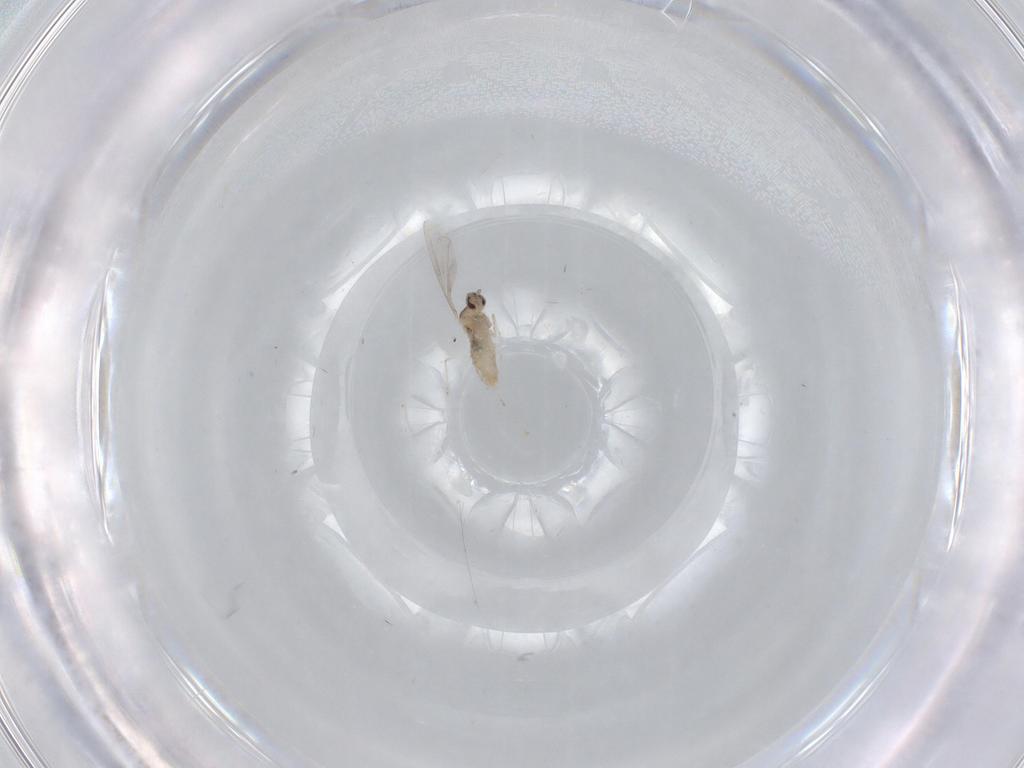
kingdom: Animalia
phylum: Arthropoda
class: Insecta
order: Diptera
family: Cecidomyiidae
